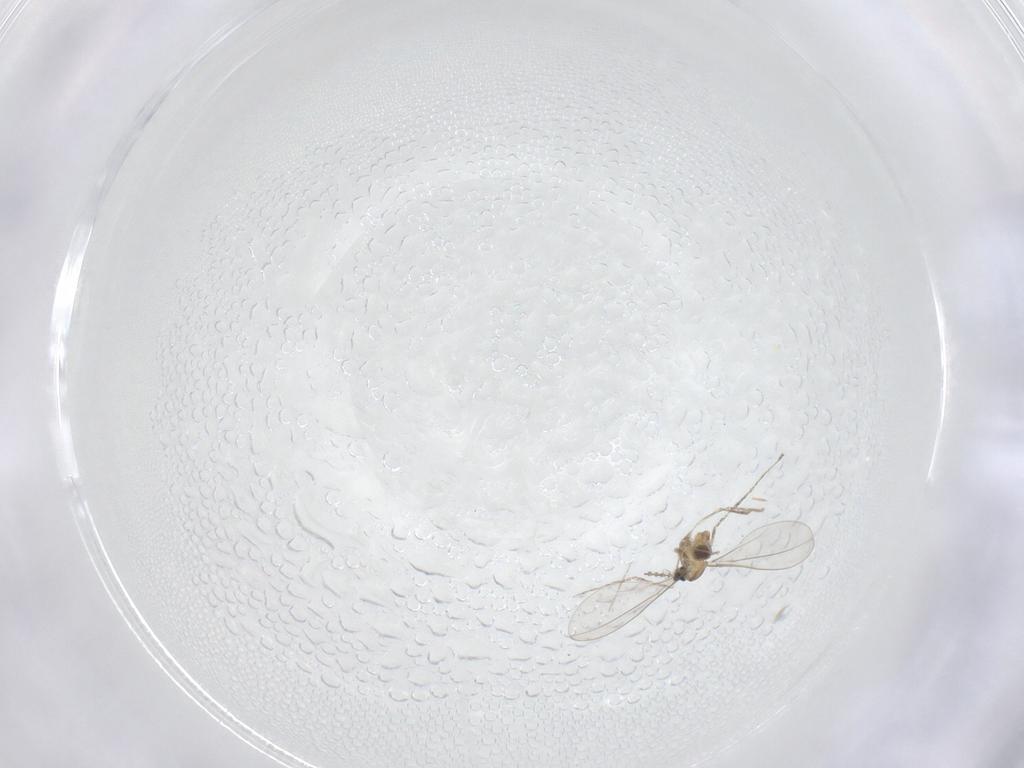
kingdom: Animalia
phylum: Arthropoda
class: Insecta
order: Diptera
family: Cecidomyiidae
